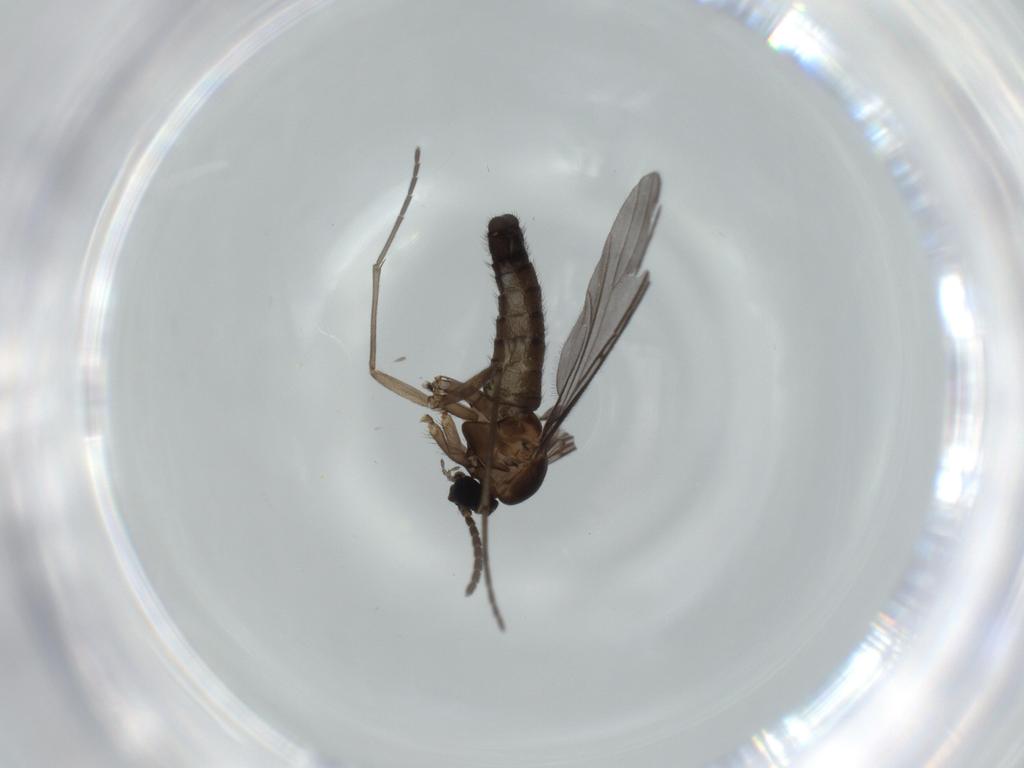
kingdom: Animalia
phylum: Arthropoda
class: Insecta
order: Diptera
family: Sciaridae
